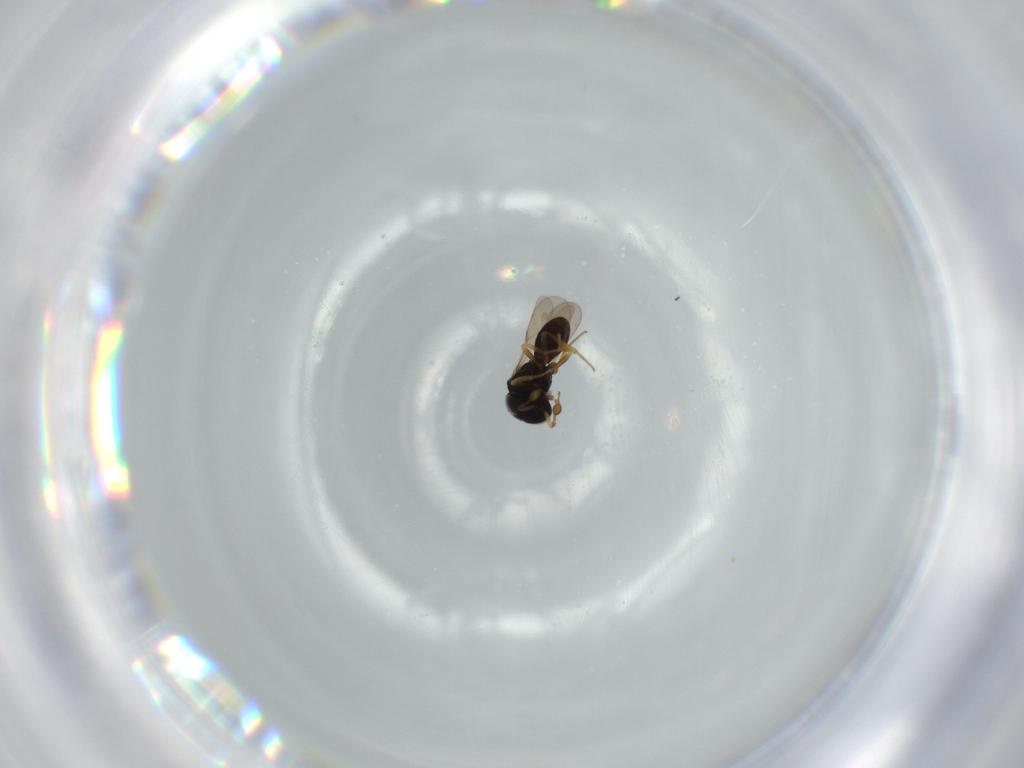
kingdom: Animalia
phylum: Arthropoda
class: Insecta
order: Hymenoptera
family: Scelionidae
